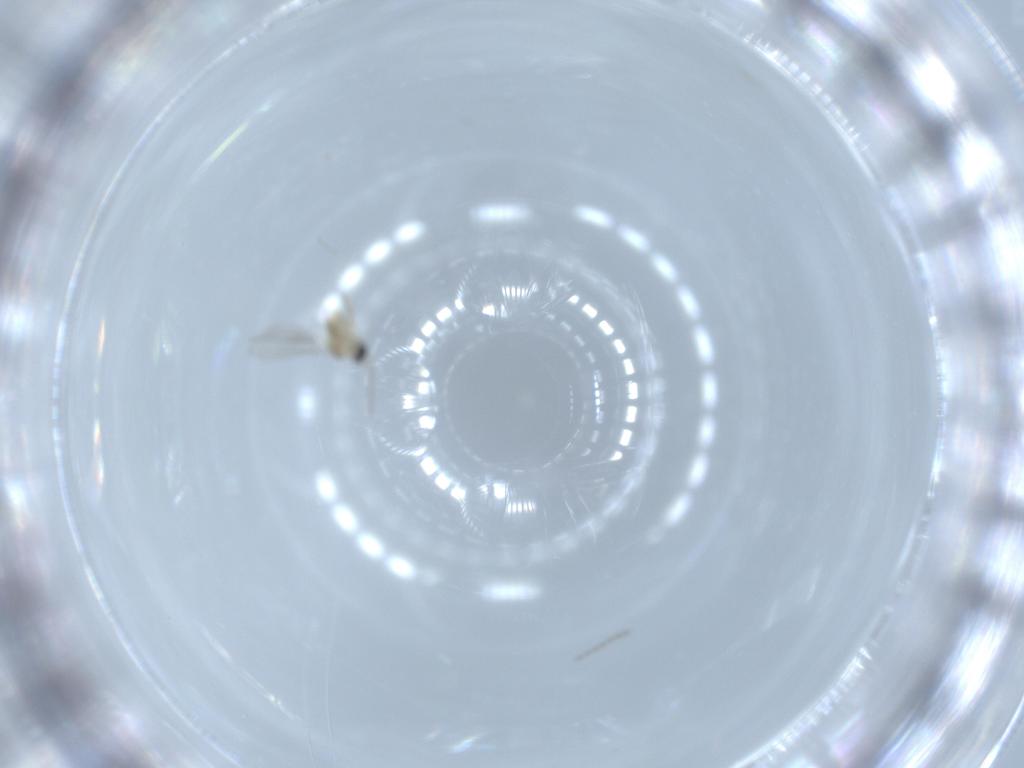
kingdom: Animalia
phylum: Arthropoda
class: Insecta
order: Diptera
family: Cecidomyiidae
